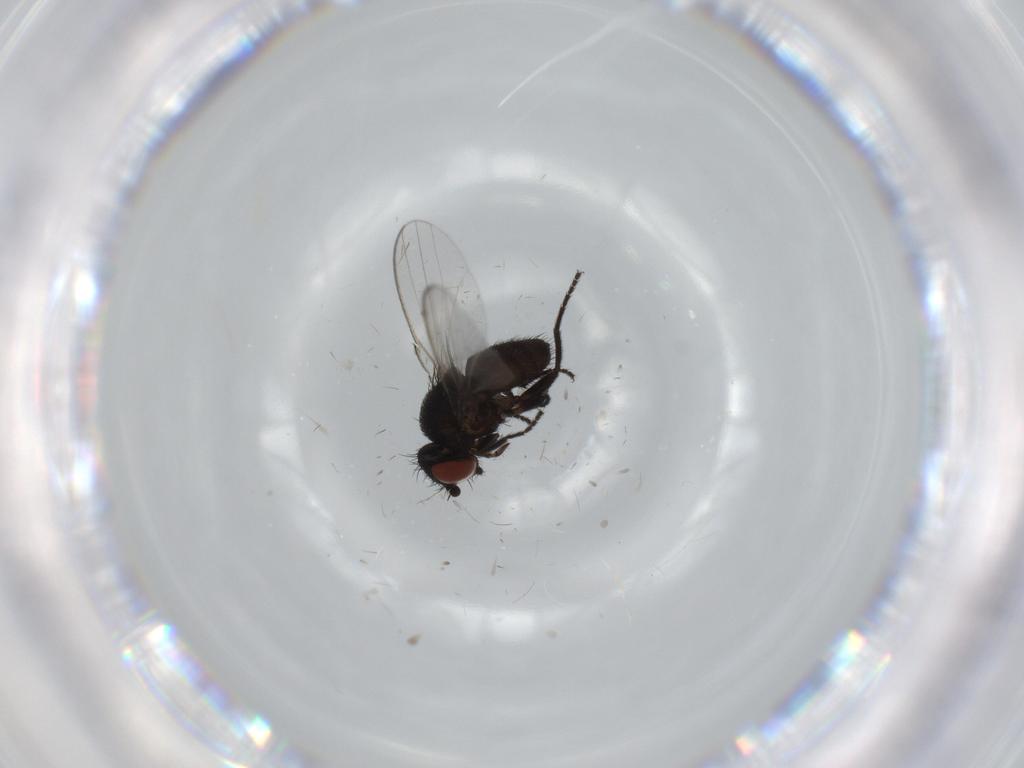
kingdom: Animalia
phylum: Arthropoda
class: Insecta
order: Diptera
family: Milichiidae
